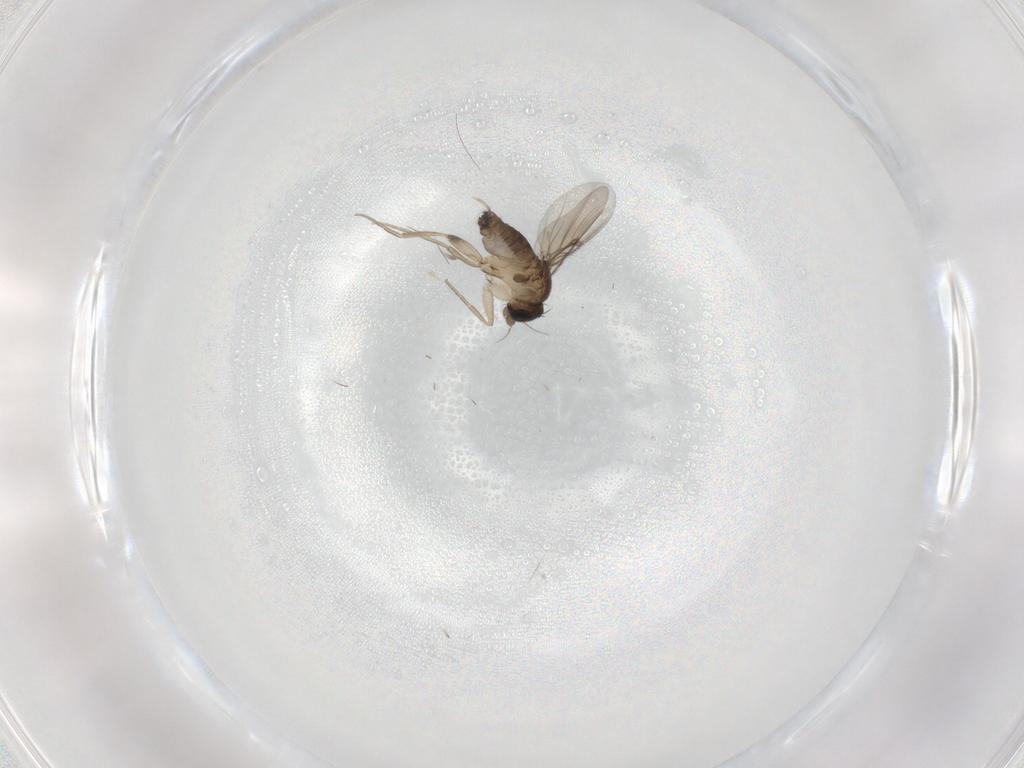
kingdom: Animalia
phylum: Arthropoda
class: Insecta
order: Diptera
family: Phoridae
